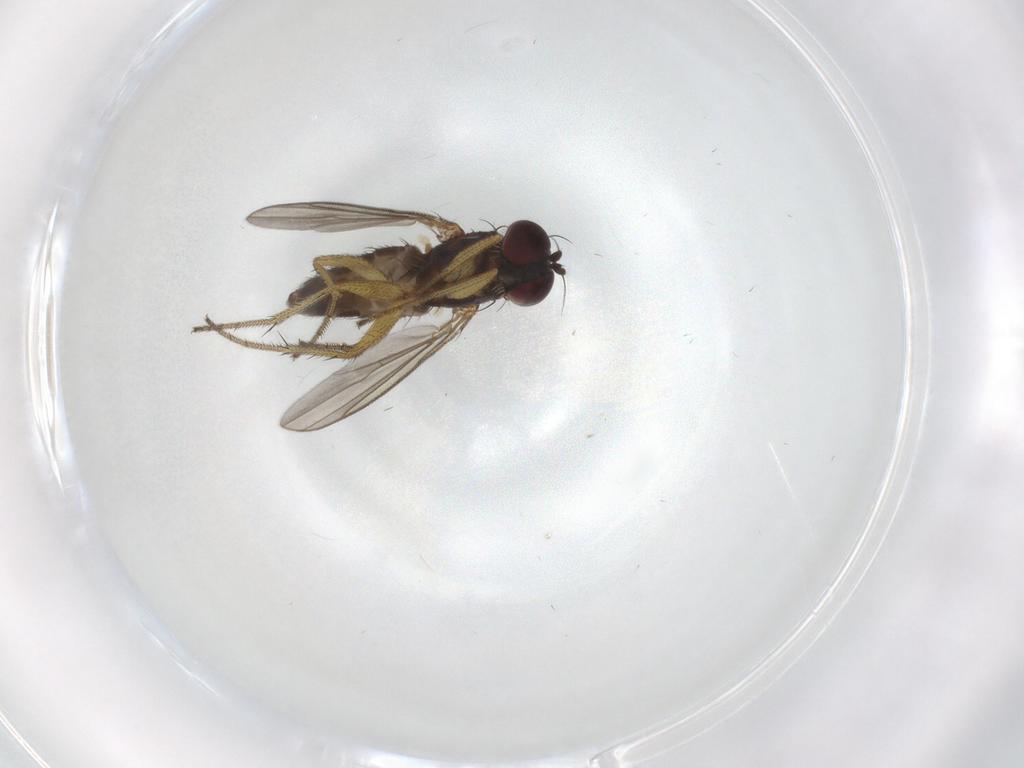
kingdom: Animalia
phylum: Arthropoda
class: Insecta
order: Diptera
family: Dolichopodidae
